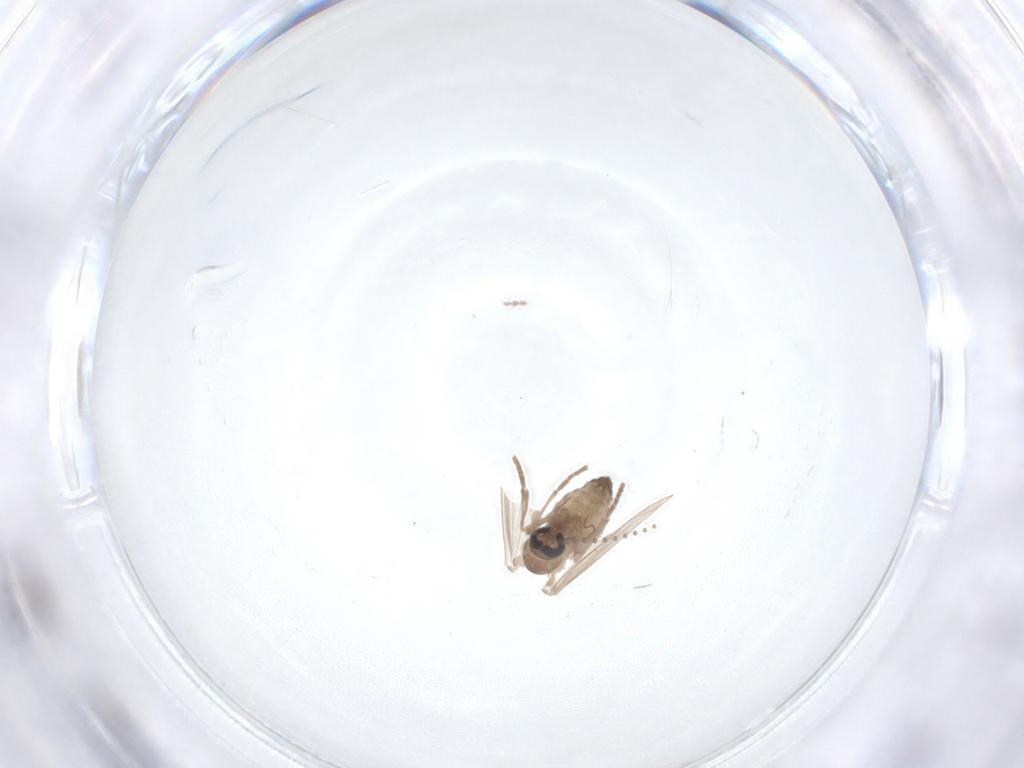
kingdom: Animalia
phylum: Arthropoda
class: Insecta
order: Diptera
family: Psychodidae
